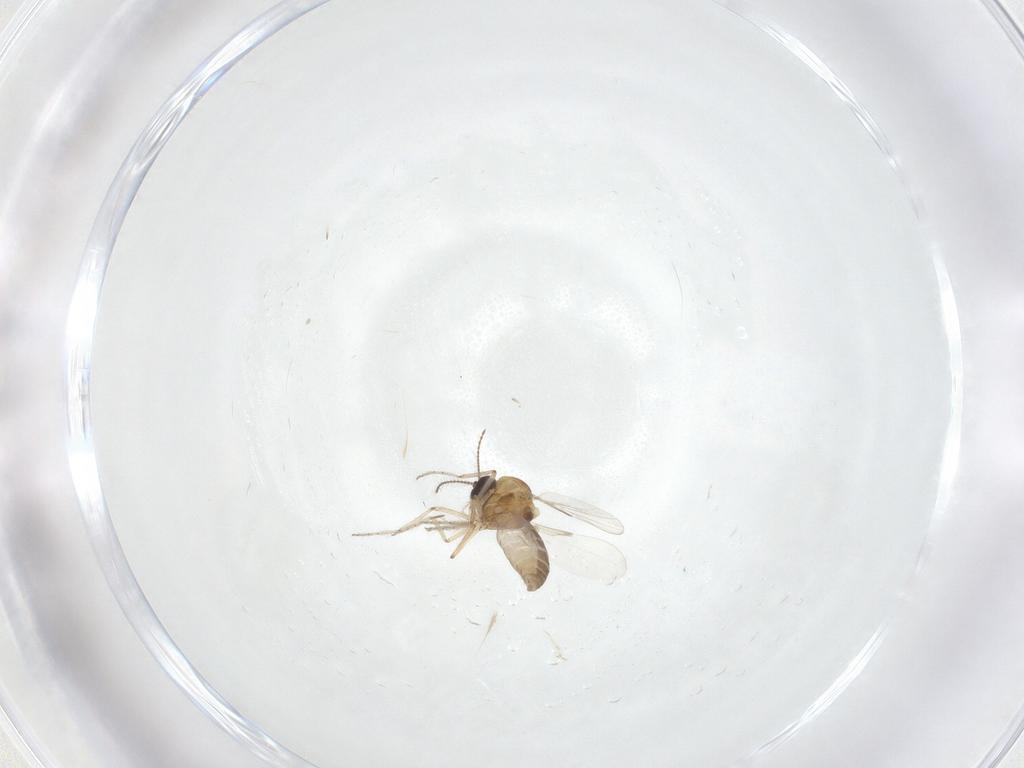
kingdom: Animalia
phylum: Arthropoda
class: Insecta
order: Diptera
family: Ceratopogonidae
